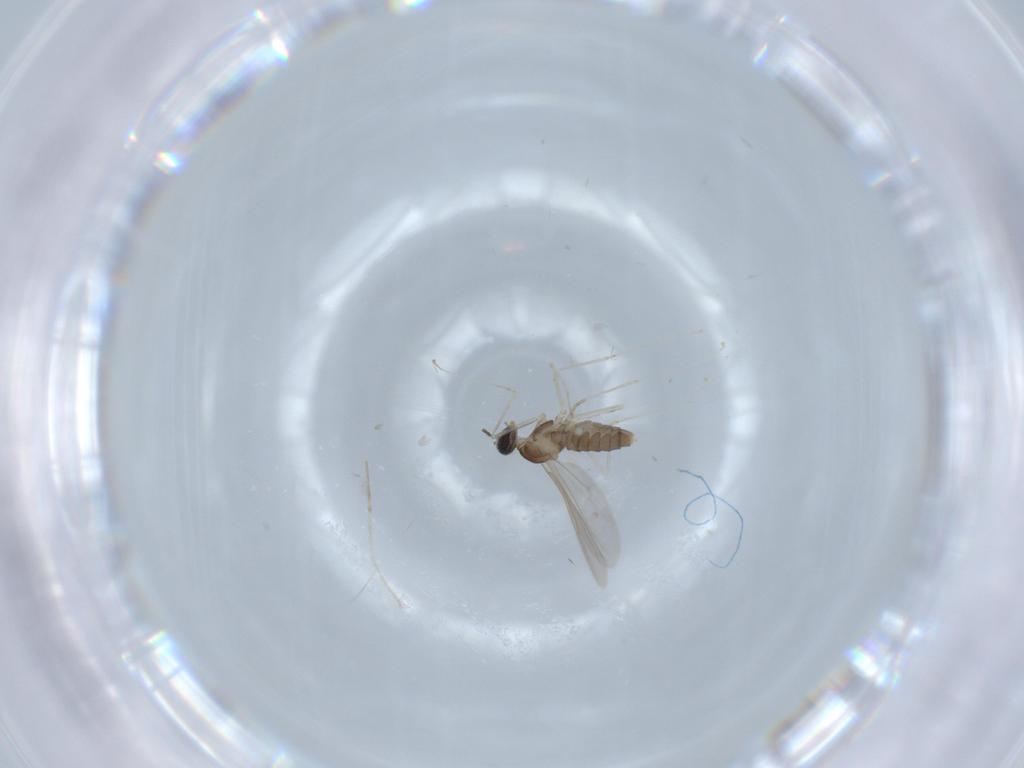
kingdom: Animalia
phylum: Arthropoda
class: Insecta
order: Diptera
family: Cecidomyiidae
